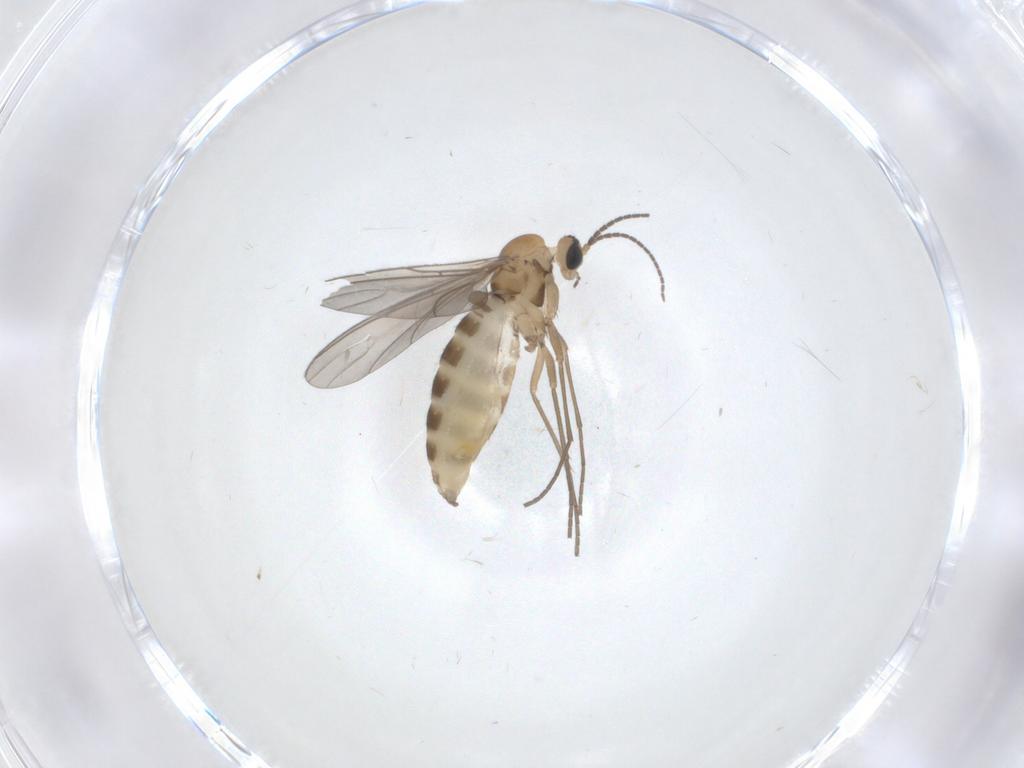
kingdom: Animalia
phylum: Arthropoda
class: Insecta
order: Diptera
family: Sciaridae
